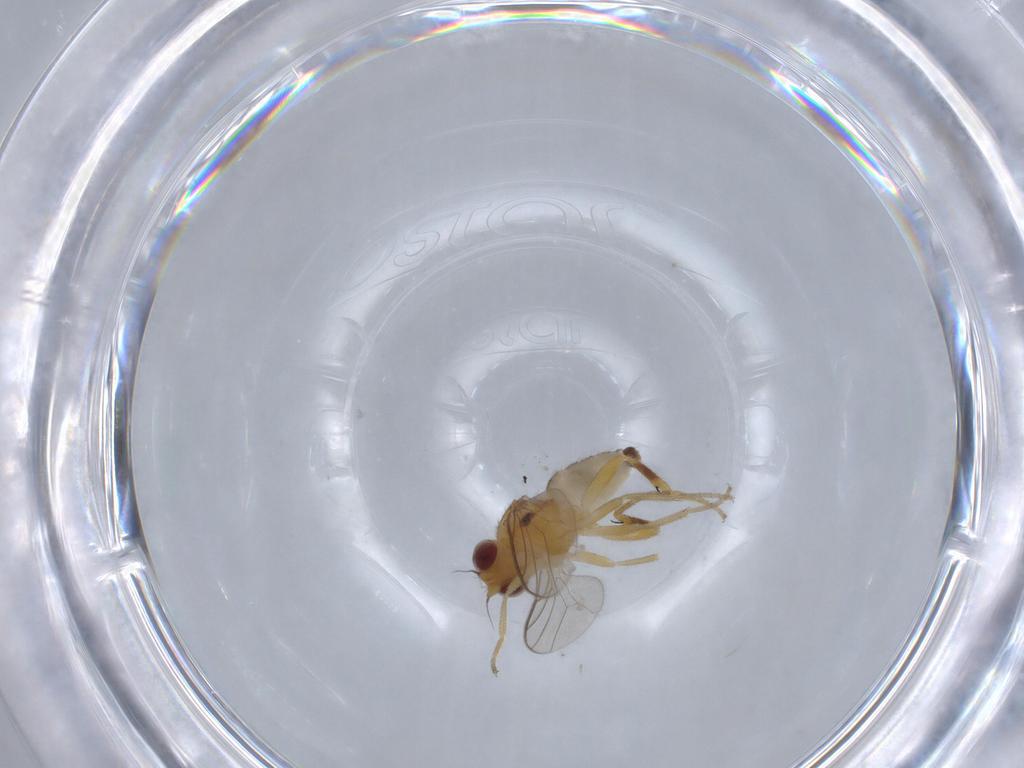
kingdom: Animalia
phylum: Arthropoda
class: Insecta
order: Diptera
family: Chloropidae
